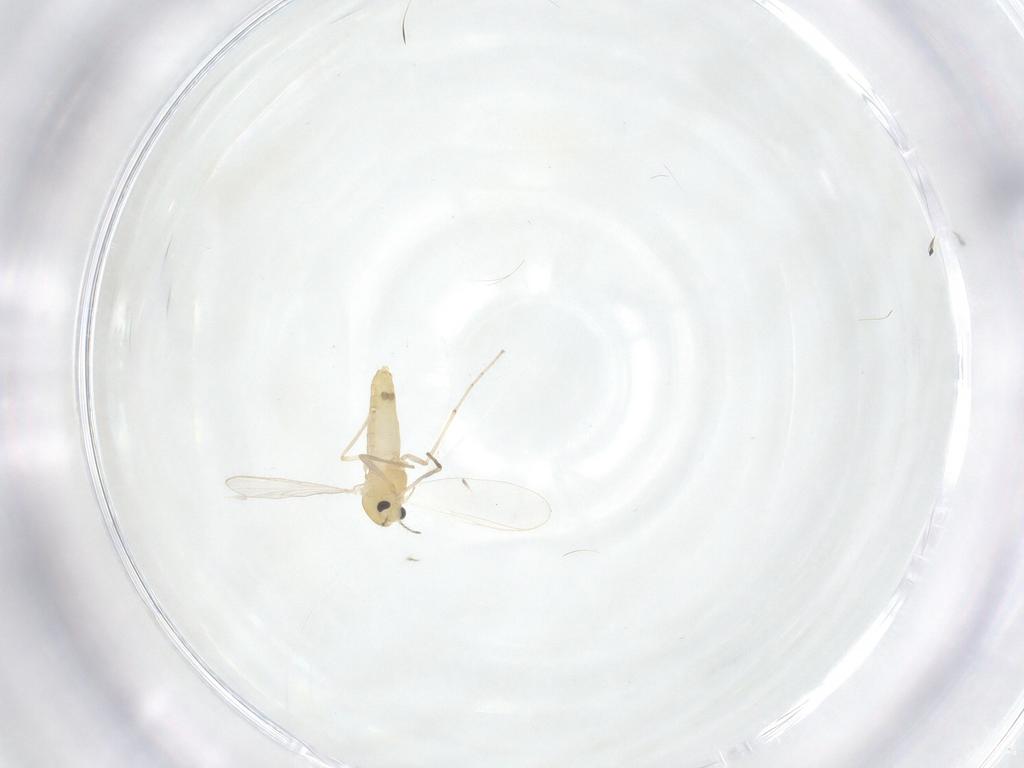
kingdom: Animalia
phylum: Arthropoda
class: Insecta
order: Diptera
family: Chironomidae
